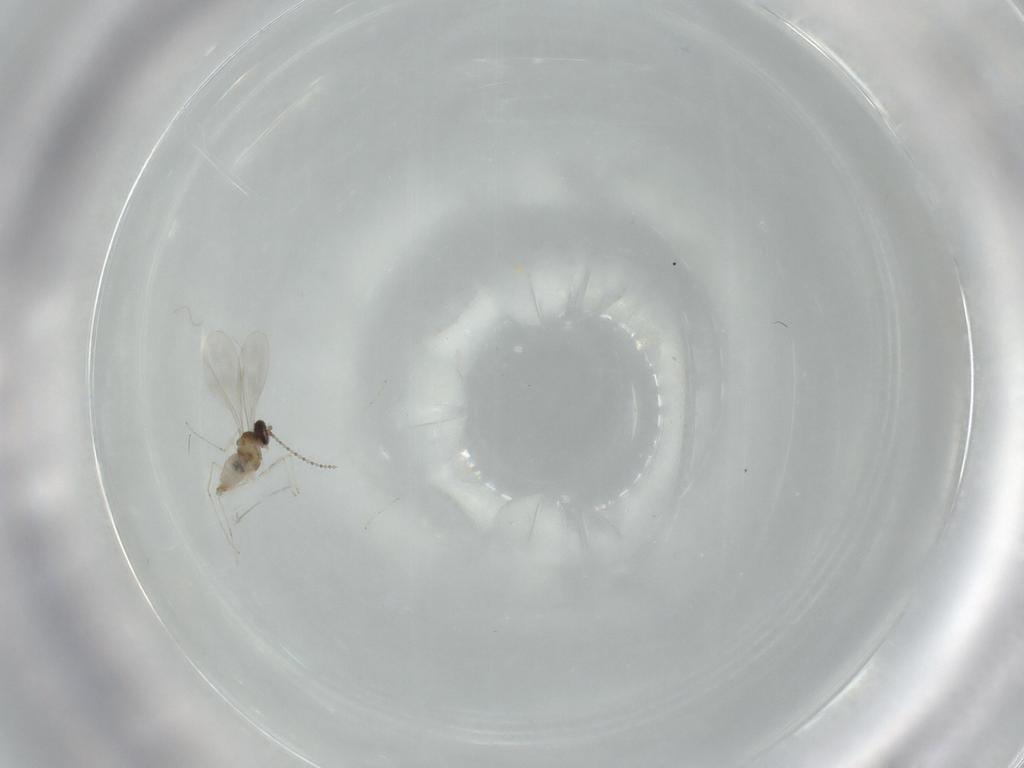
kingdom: Animalia
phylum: Arthropoda
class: Insecta
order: Diptera
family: Cecidomyiidae
